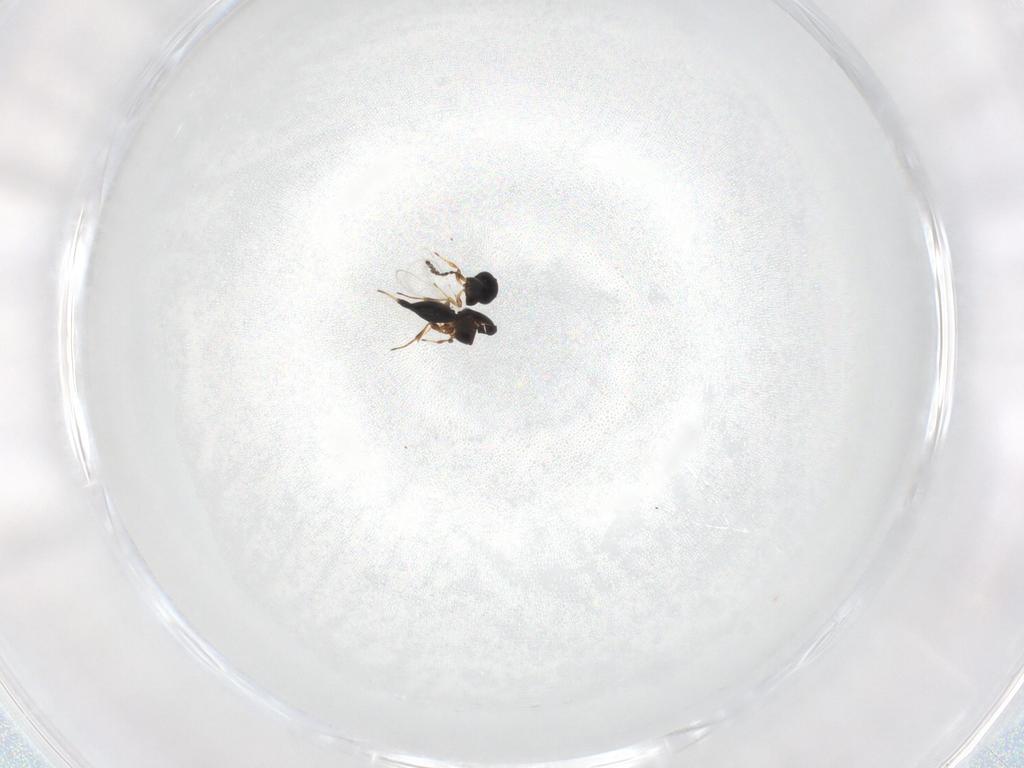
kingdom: Animalia
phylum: Arthropoda
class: Insecta
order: Hymenoptera
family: Platygastridae
